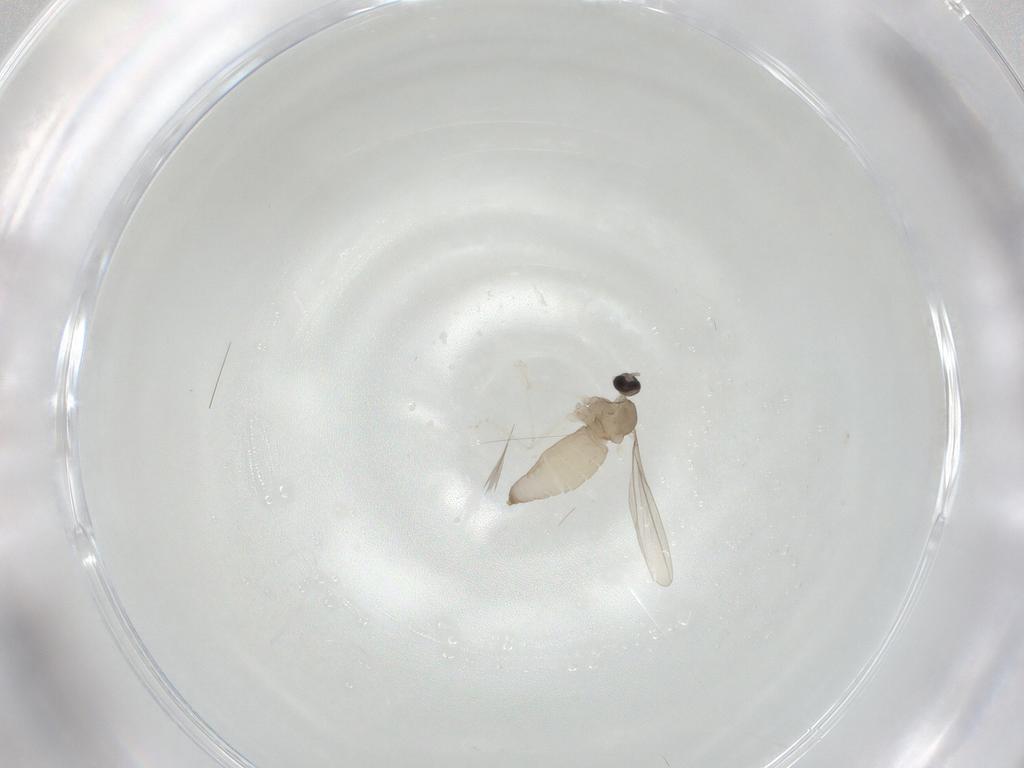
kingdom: Animalia
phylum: Arthropoda
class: Insecta
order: Diptera
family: Cecidomyiidae
